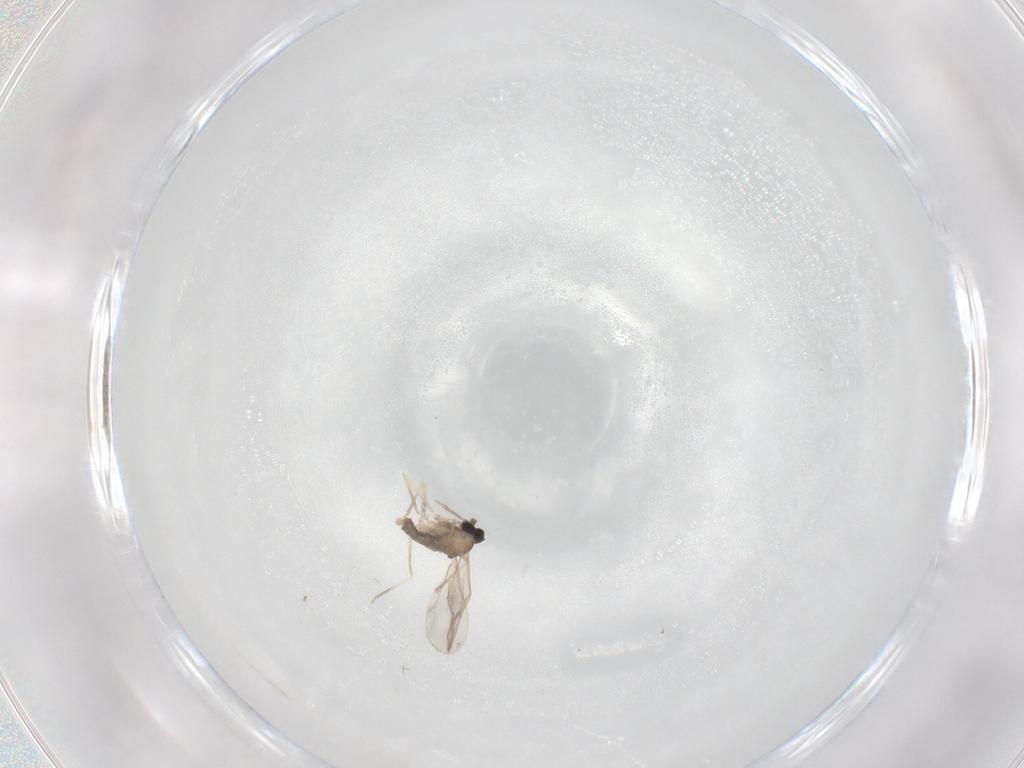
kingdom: Animalia
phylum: Arthropoda
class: Insecta
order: Diptera
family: Cecidomyiidae
